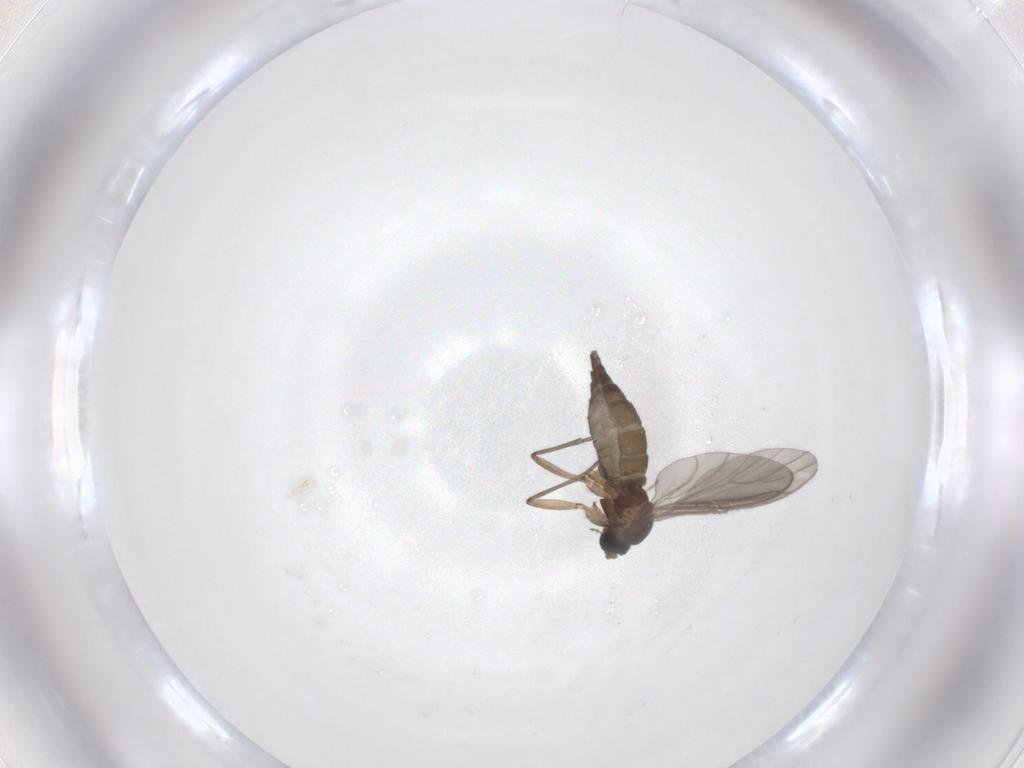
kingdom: Animalia
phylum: Arthropoda
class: Insecta
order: Diptera
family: Sciaridae
